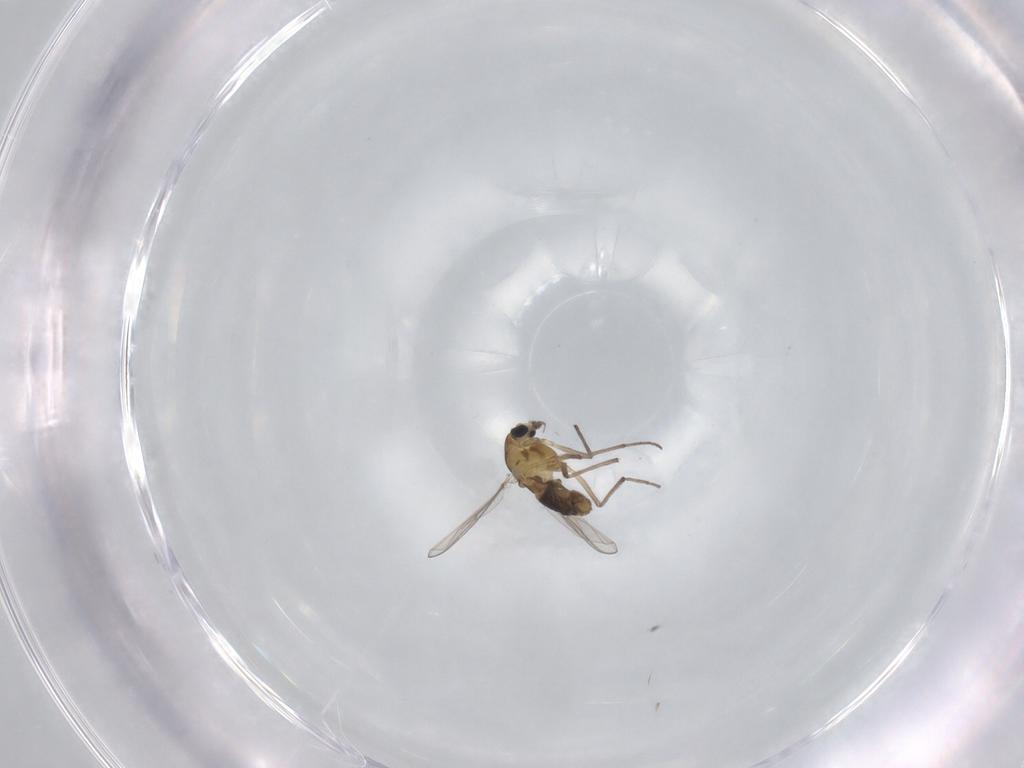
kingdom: Animalia
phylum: Arthropoda
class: Insecta
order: Diptera
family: Chironomidae
